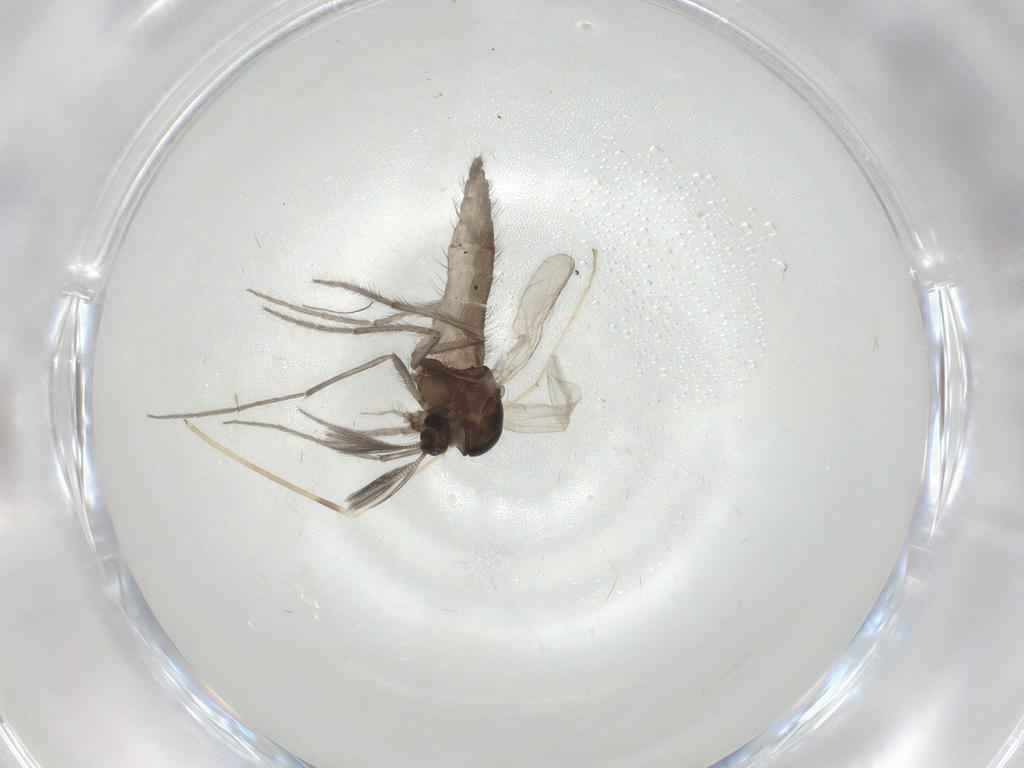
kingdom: Animalia
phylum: Arthropoda
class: Insecta
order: Diptera
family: Chironomidae
